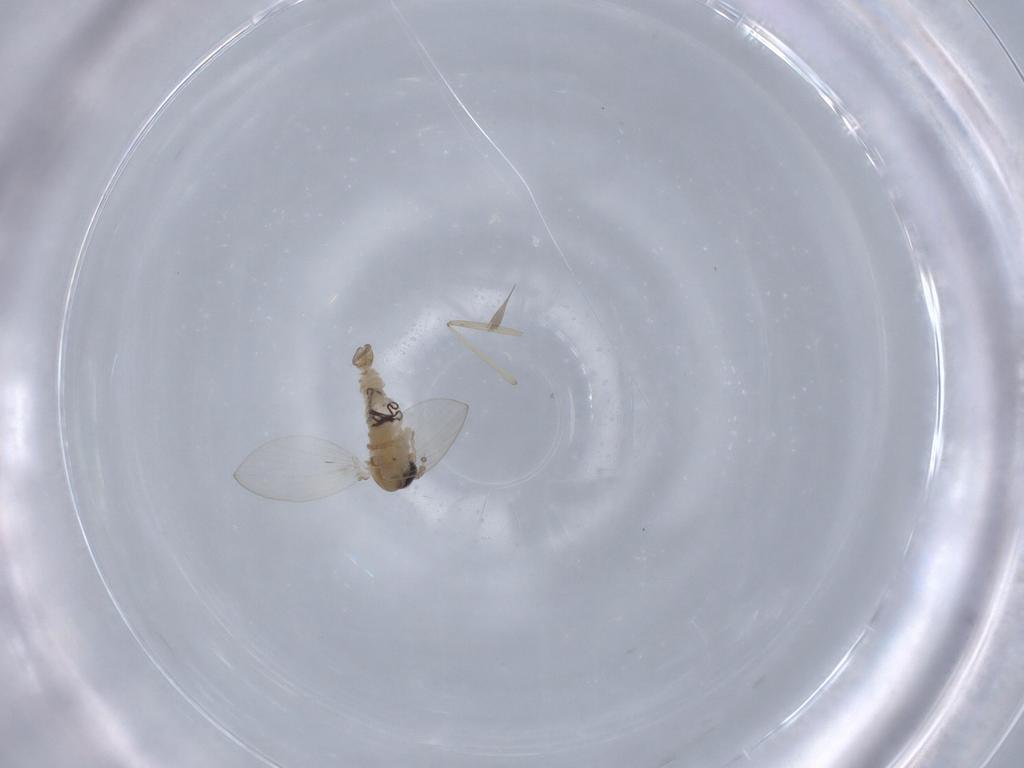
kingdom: Animalia
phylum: Arthropoda
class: Insecta
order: Diptera
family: Psychodidae
